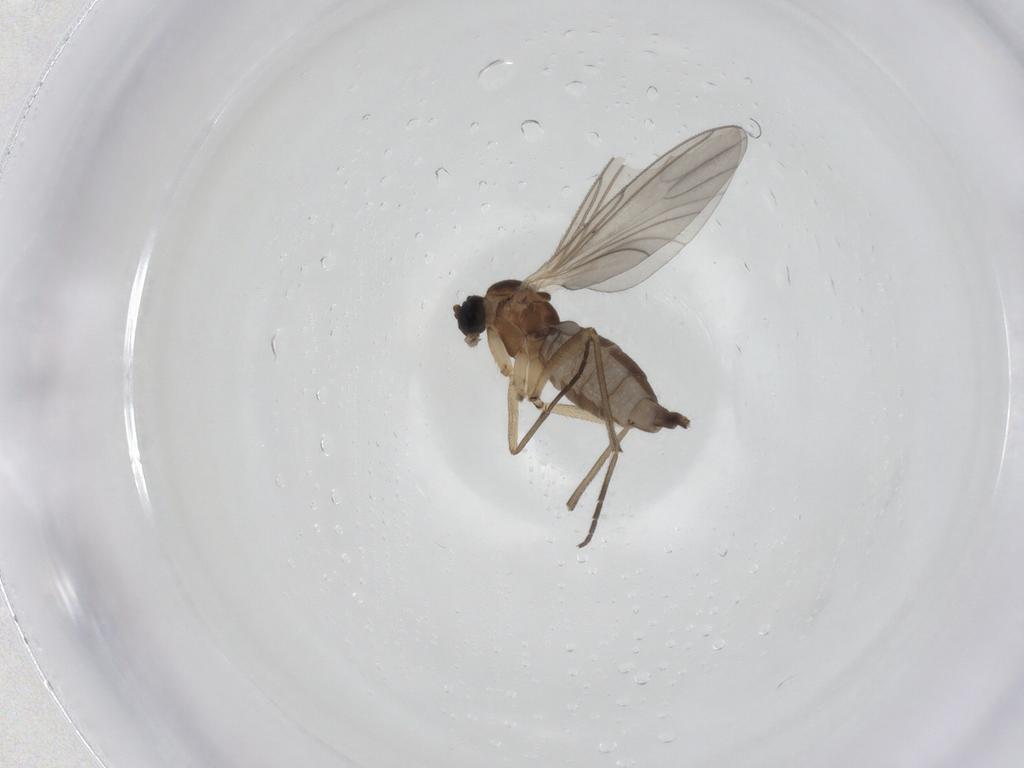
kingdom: Animalia
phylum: Arthropoda
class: Insecta
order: Diptera
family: Sciaridae
